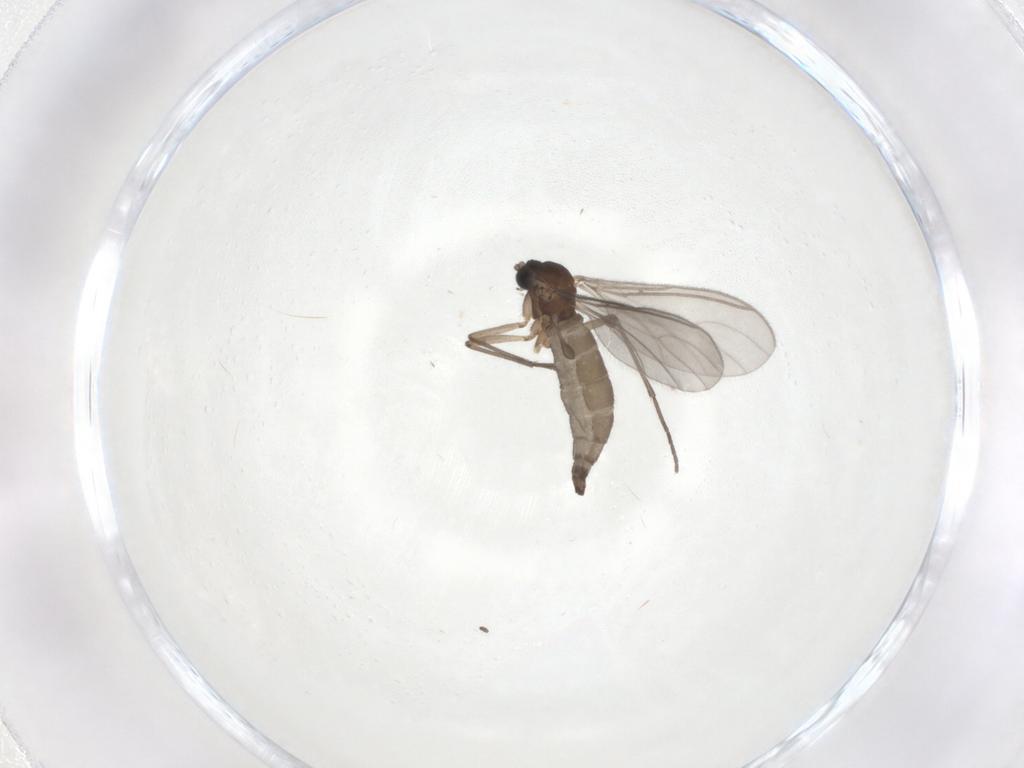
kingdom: Animalia
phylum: Arthropoda
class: Insecta
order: Diptera
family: Sciaridae
